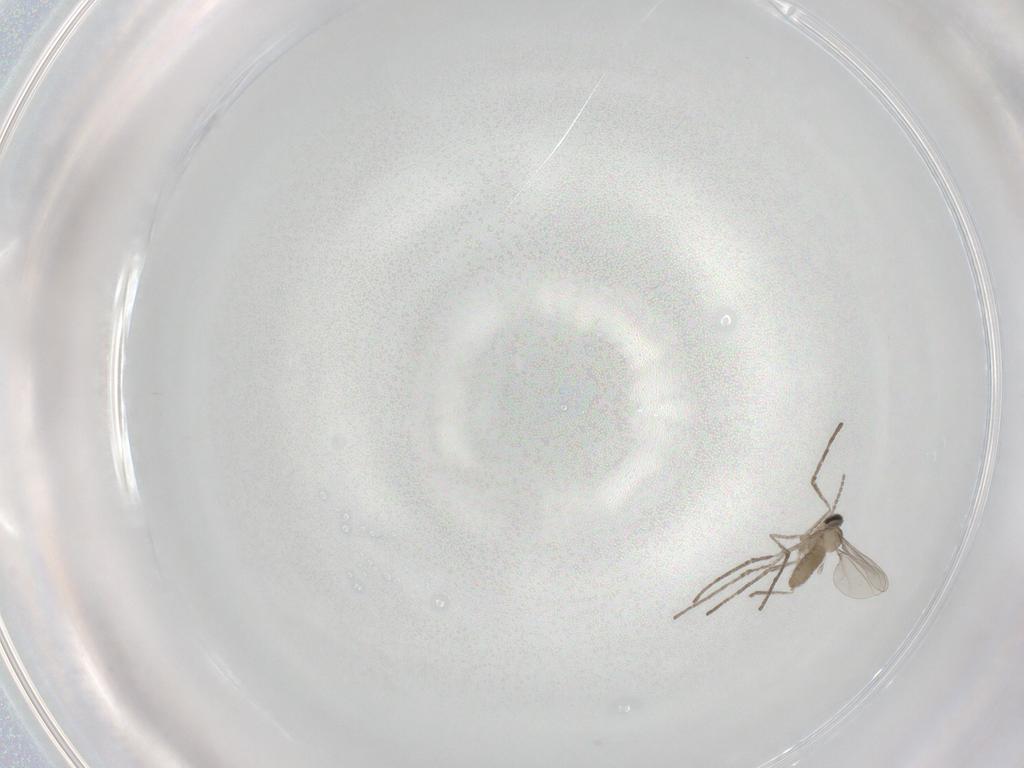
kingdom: Animalia
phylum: Arthropoda
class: Insecta
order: Diptera
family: Cecidomyiidae
